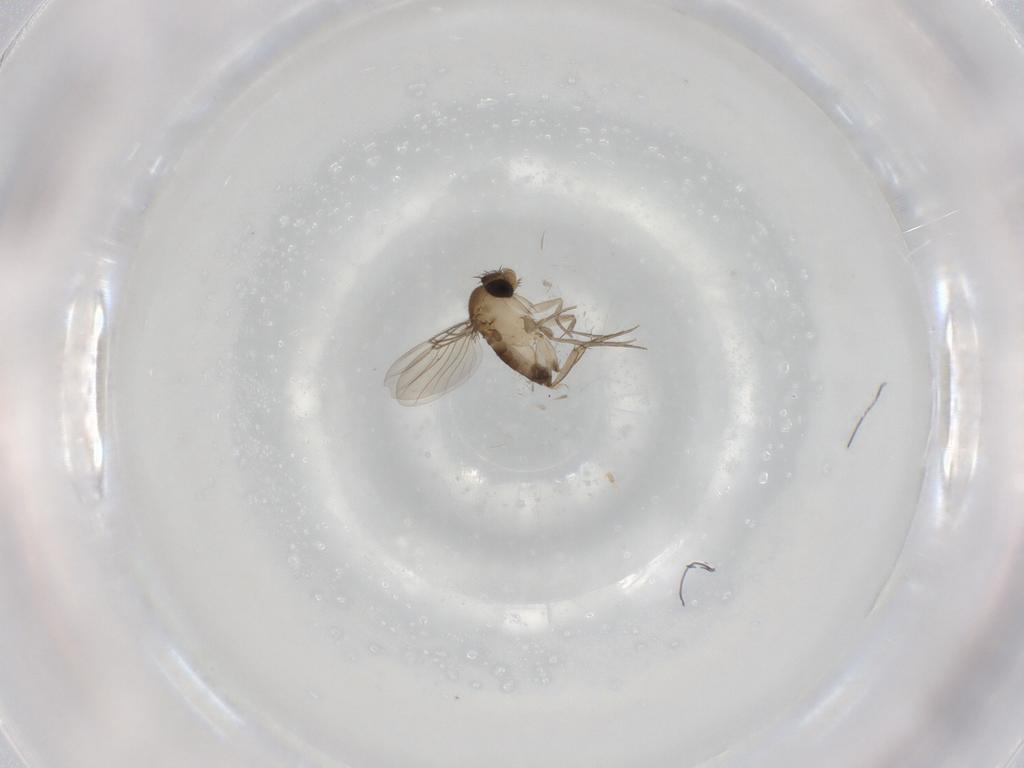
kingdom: Animalia
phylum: Arthropoda
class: Insecta
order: Diptera
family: Phoridae
